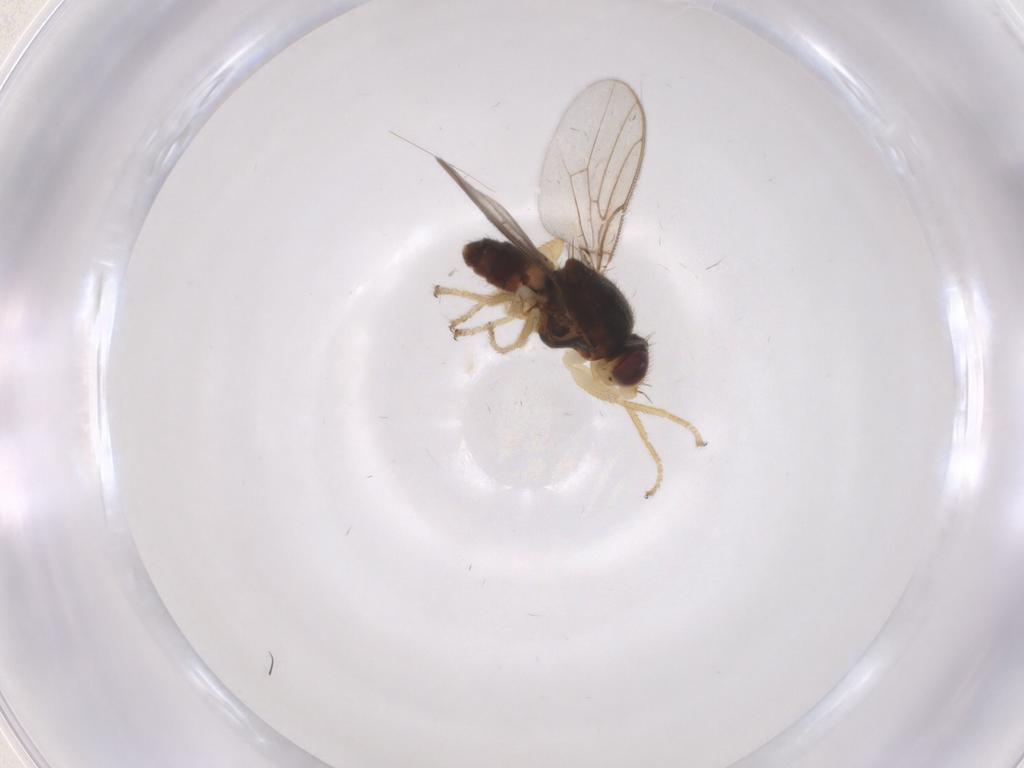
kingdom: Animalia
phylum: Arthropoda
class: Insecta
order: Diptera
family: Chloropidae
